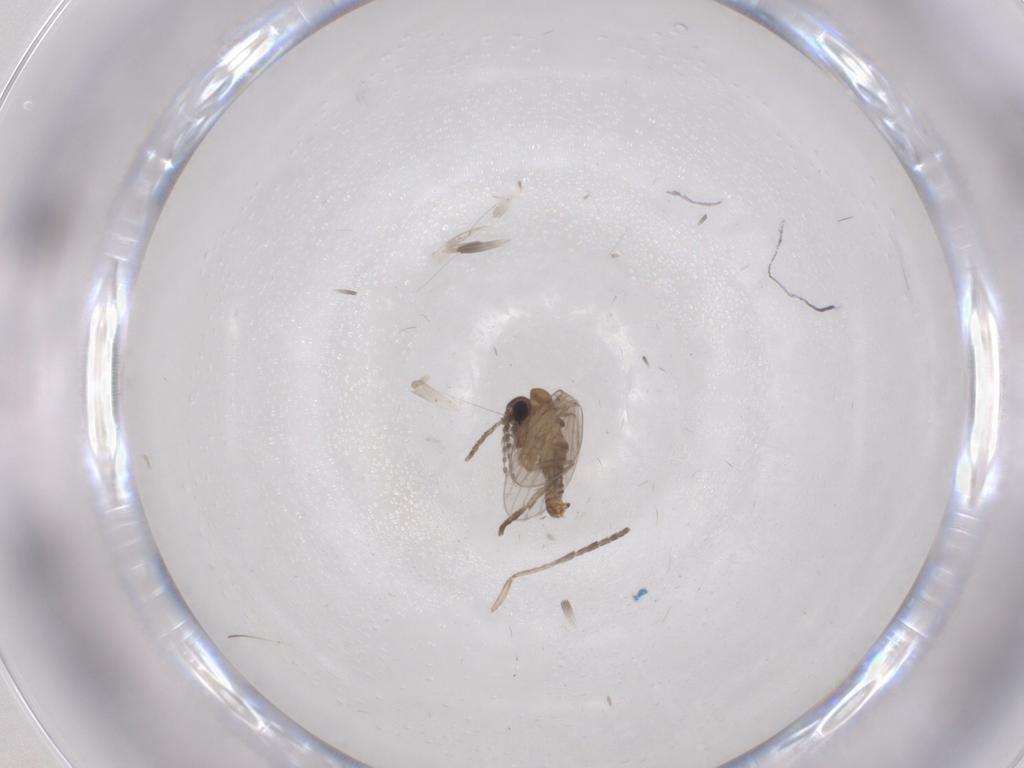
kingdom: Animalia
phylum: Arthropoda
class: Insecta
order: Diptera
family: Psychodidae
